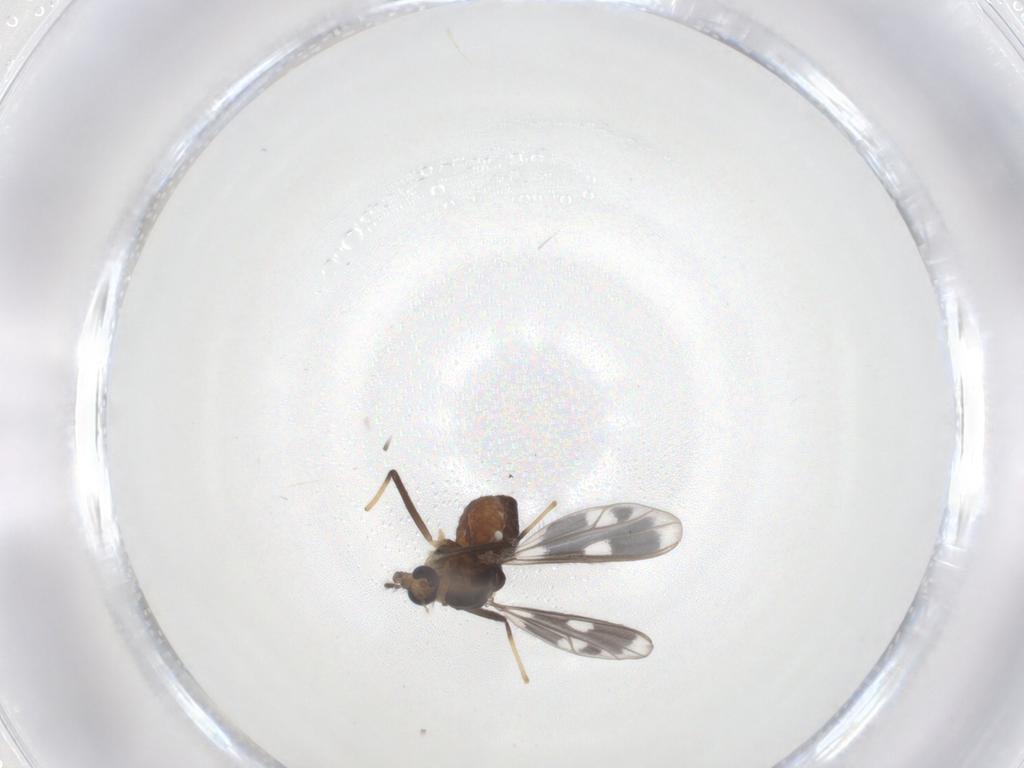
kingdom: Animalia
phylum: Arthropoda
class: Insecta
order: Diptera
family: Chironomidae
